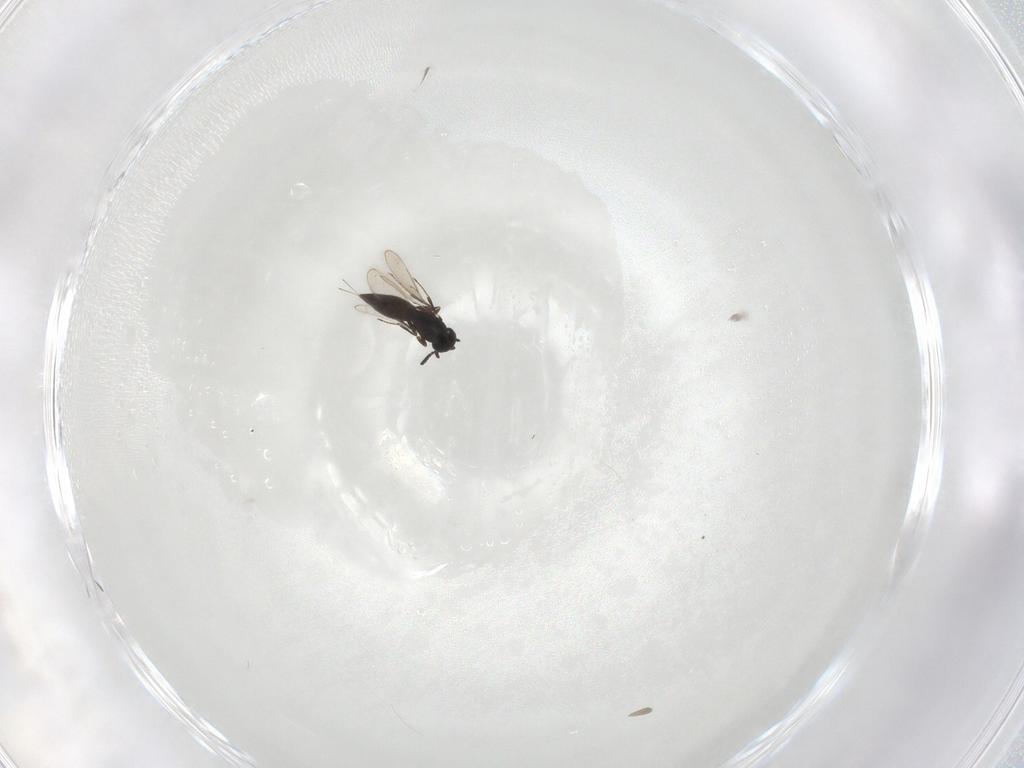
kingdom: Animalia
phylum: Arthropoda
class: Insecta
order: Hymenoptera
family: Scelionidae
